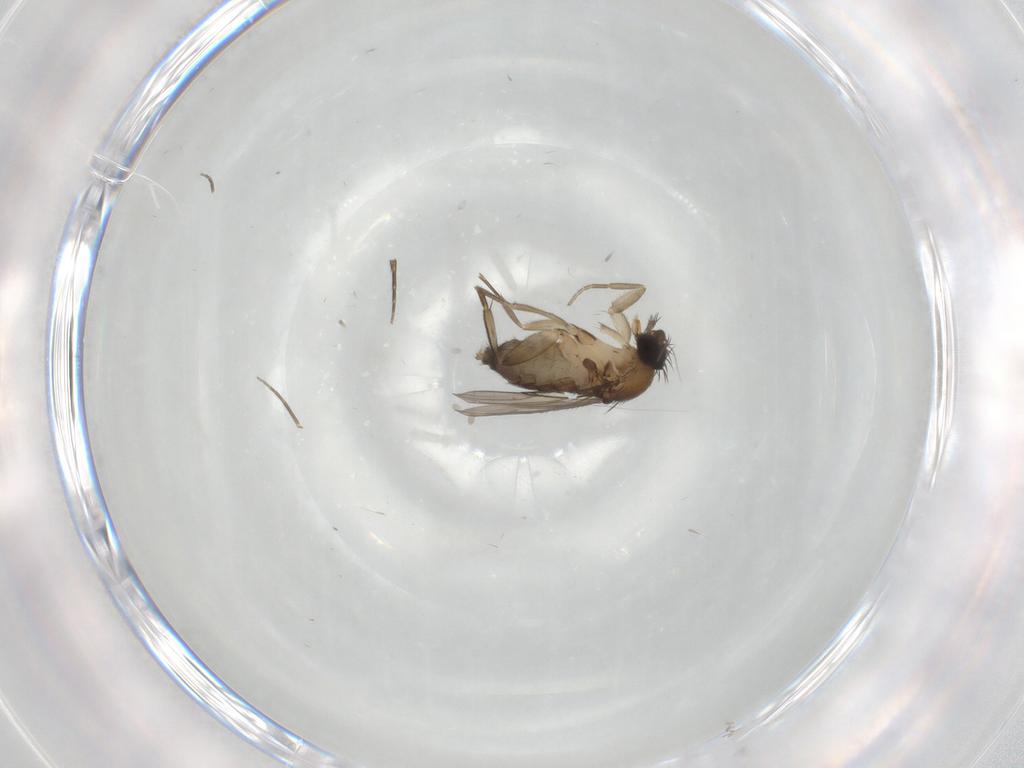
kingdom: Animalia
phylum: Arthropoda
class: Insecta
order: Diptera
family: Phoridae
